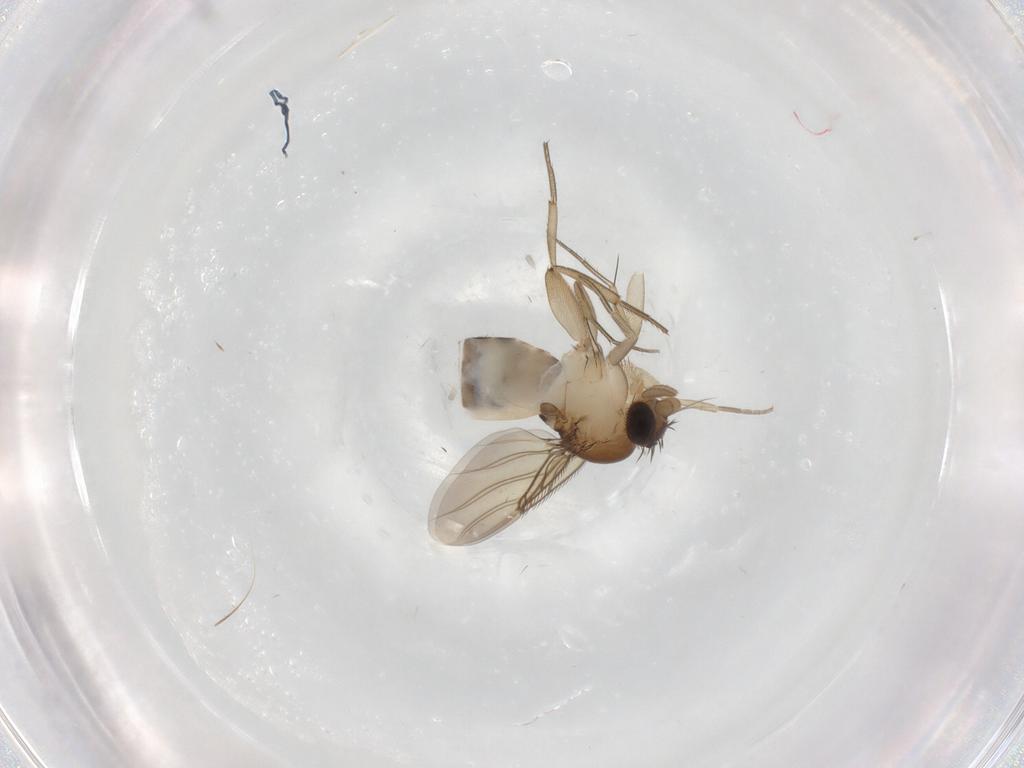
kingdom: Animalia
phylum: Arthropoda
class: Insecta
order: Diptera
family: Phoridae
